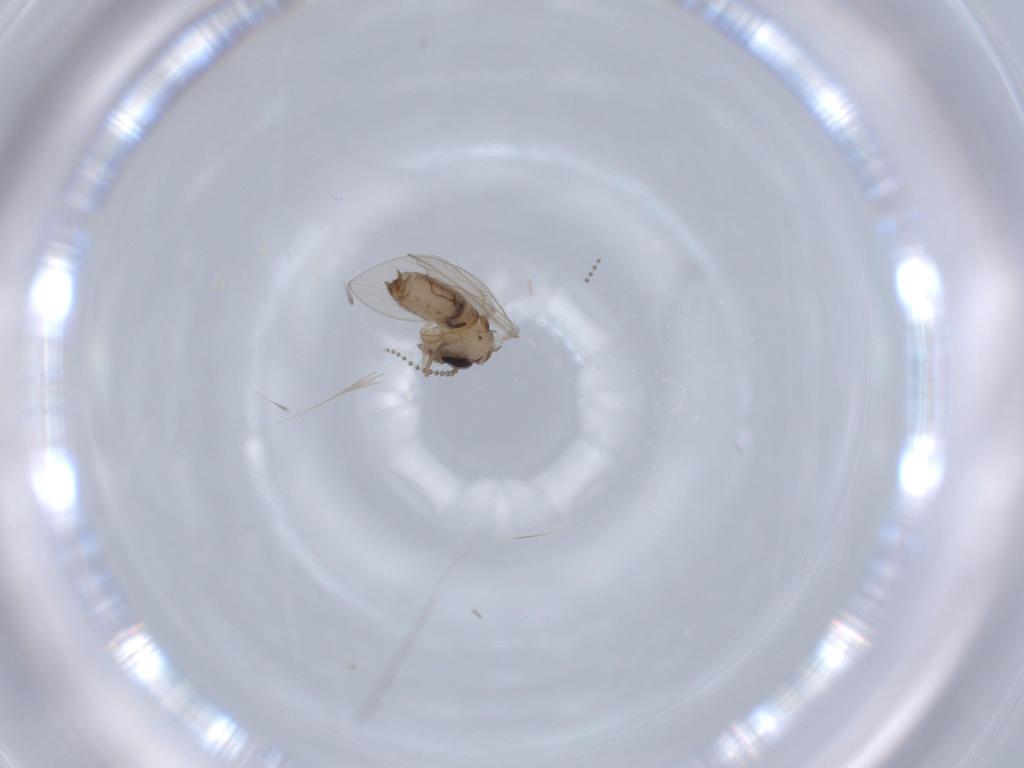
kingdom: Animalia
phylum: Arthropoda
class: Insecta
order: Diptera
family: Psychodidae
